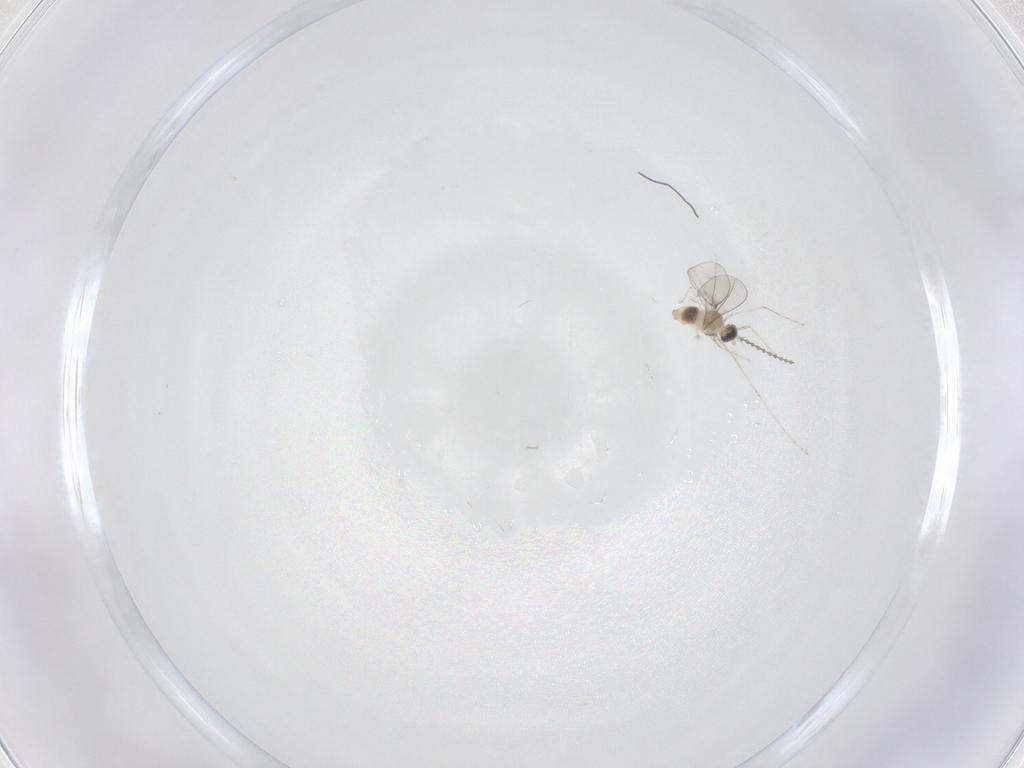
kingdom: Animalia
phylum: Arthropoda
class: Insecta
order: Diptera
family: Cecidomyiidae
